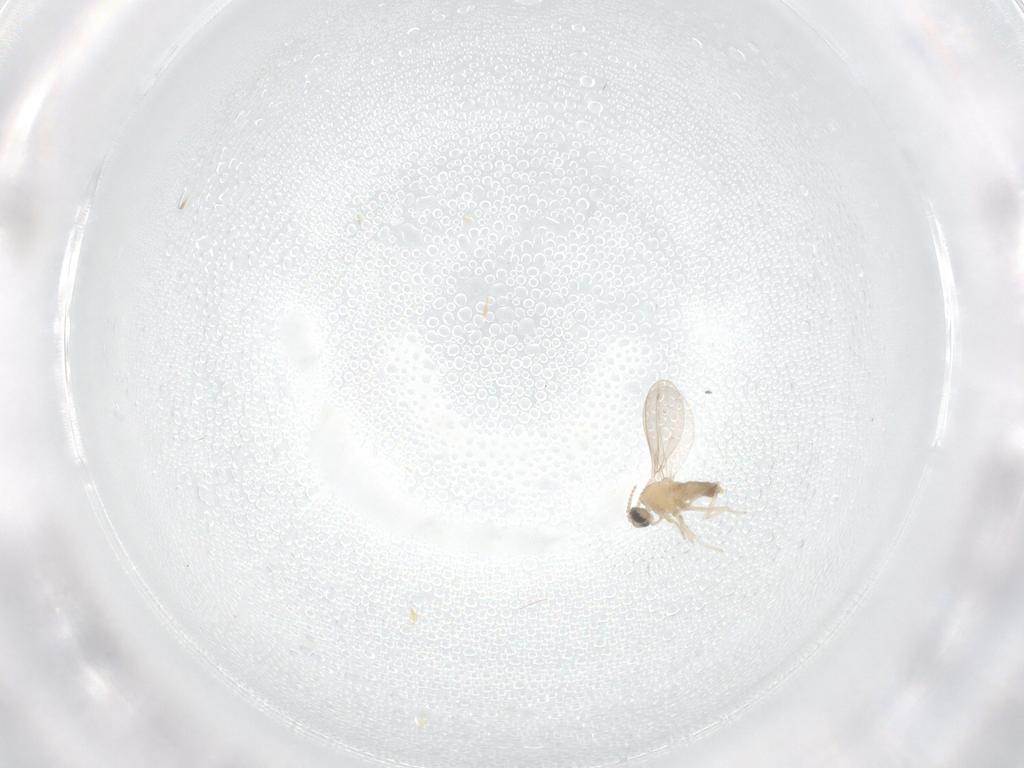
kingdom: Animalia
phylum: Arthropoda
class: Insecta
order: Diptera
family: Cecidomyiidae
